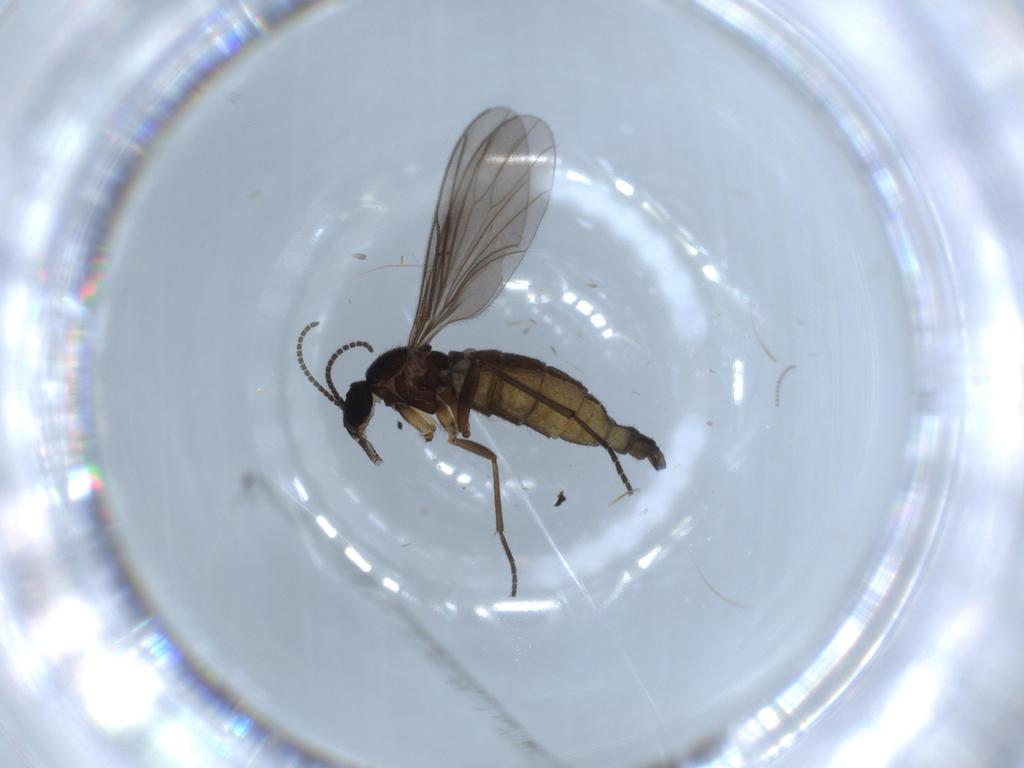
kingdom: Animalia
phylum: Arthropoda
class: Insecta
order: Diptera
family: Sciaridae
